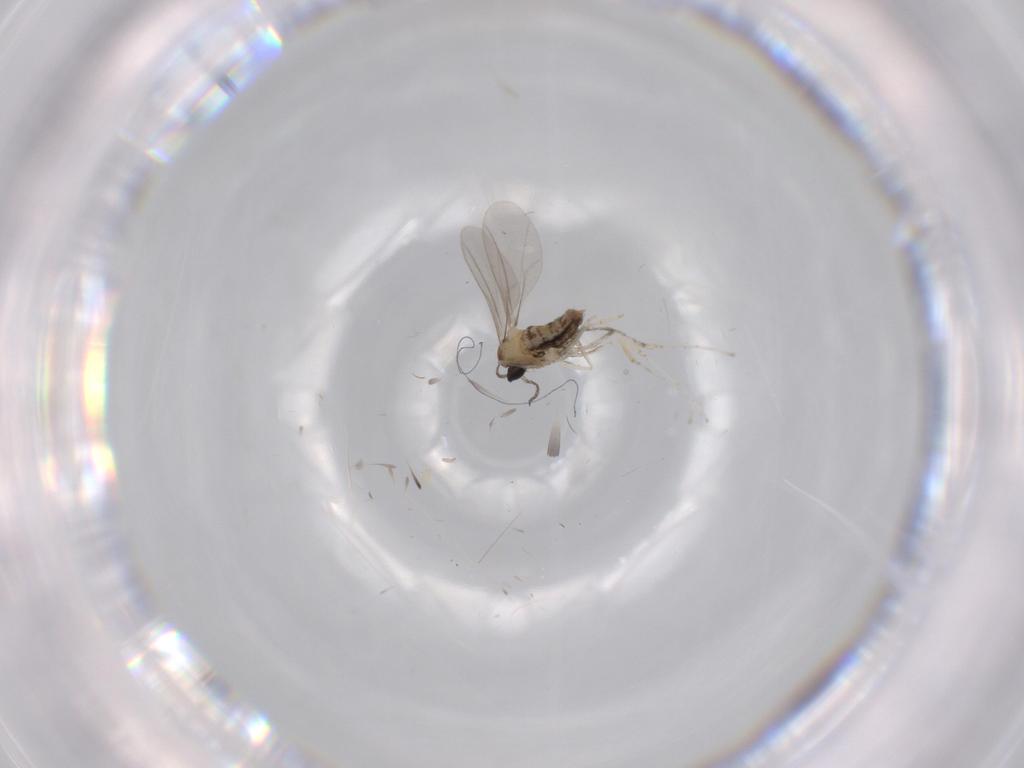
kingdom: Animalia
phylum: Arthropoda
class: Insecta
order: Diptera
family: Cecidomyiidae
